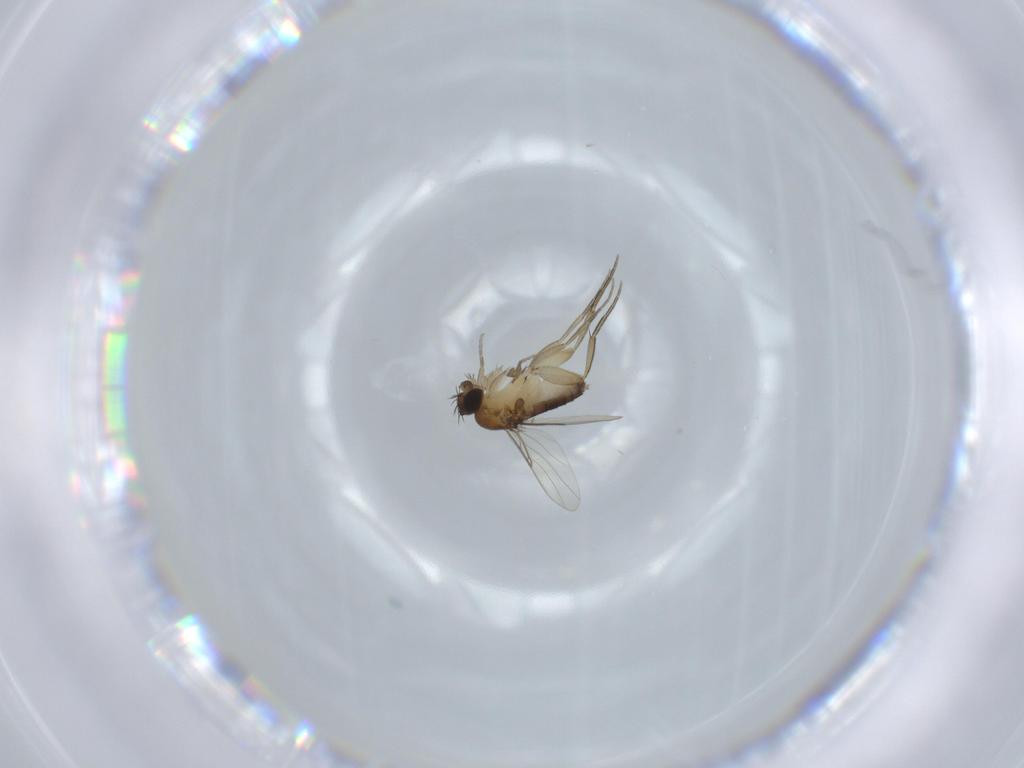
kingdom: Animalia
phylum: Arthropoda
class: Insecta
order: Diptera
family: Phoridae
